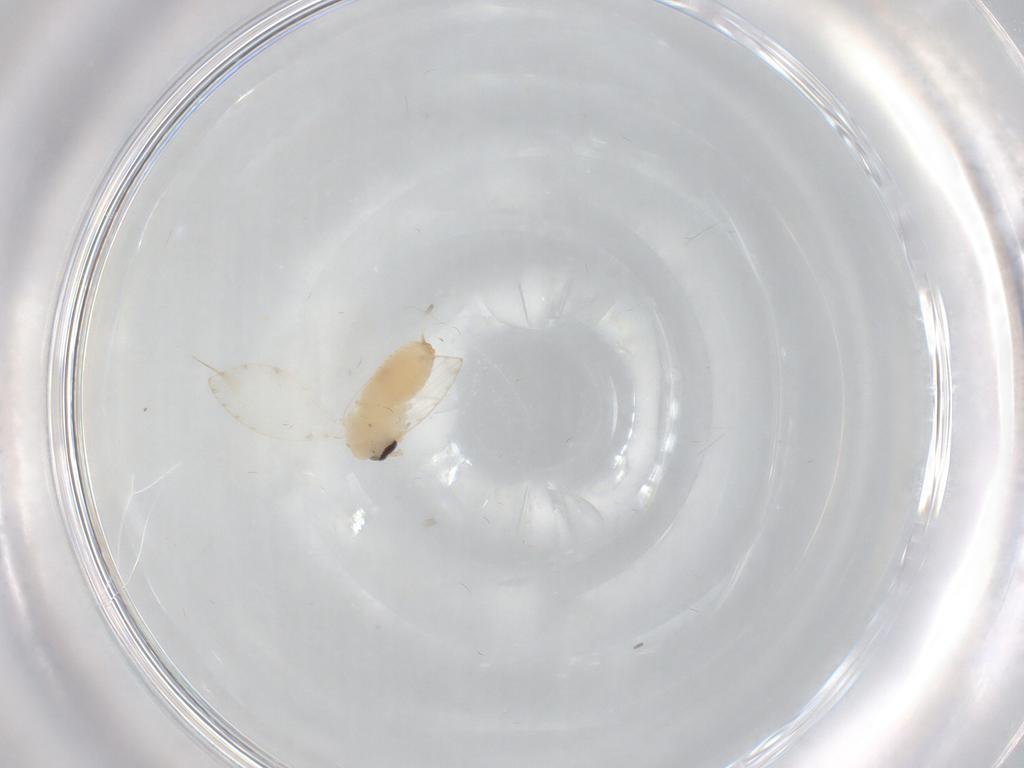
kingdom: Animalia
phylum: Arthropoda
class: Insecta
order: Diptera
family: Psychodidae
